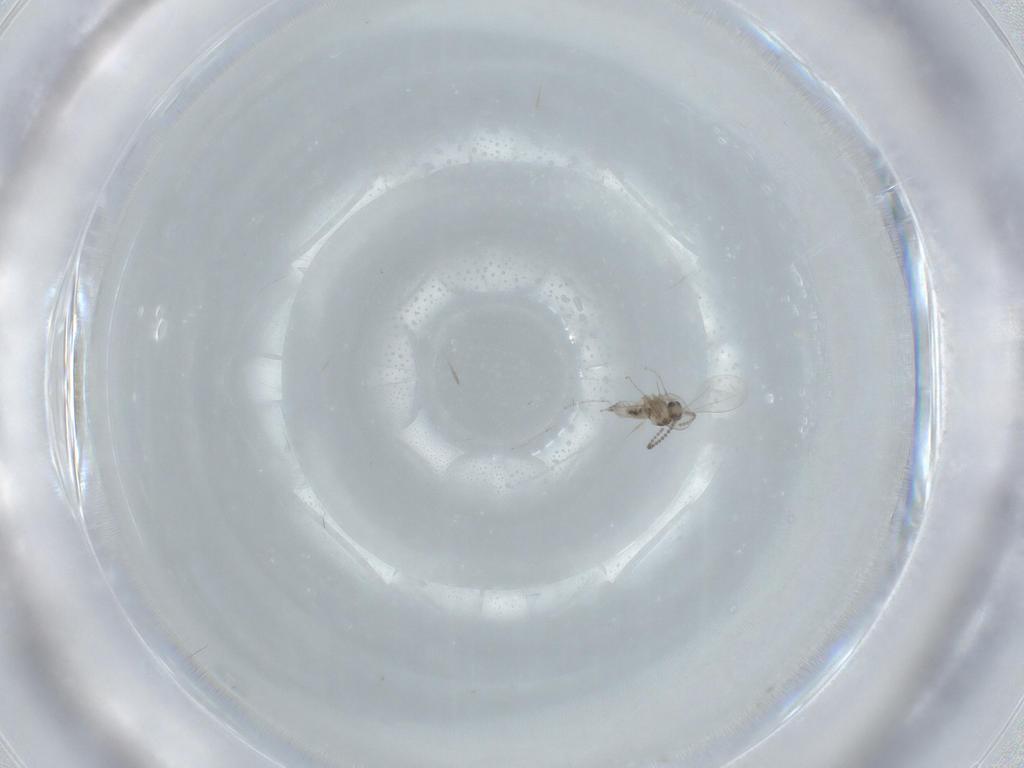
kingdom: Animalia
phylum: Arthropoda
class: Insecta
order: Diptera
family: Cecidomyiidae
